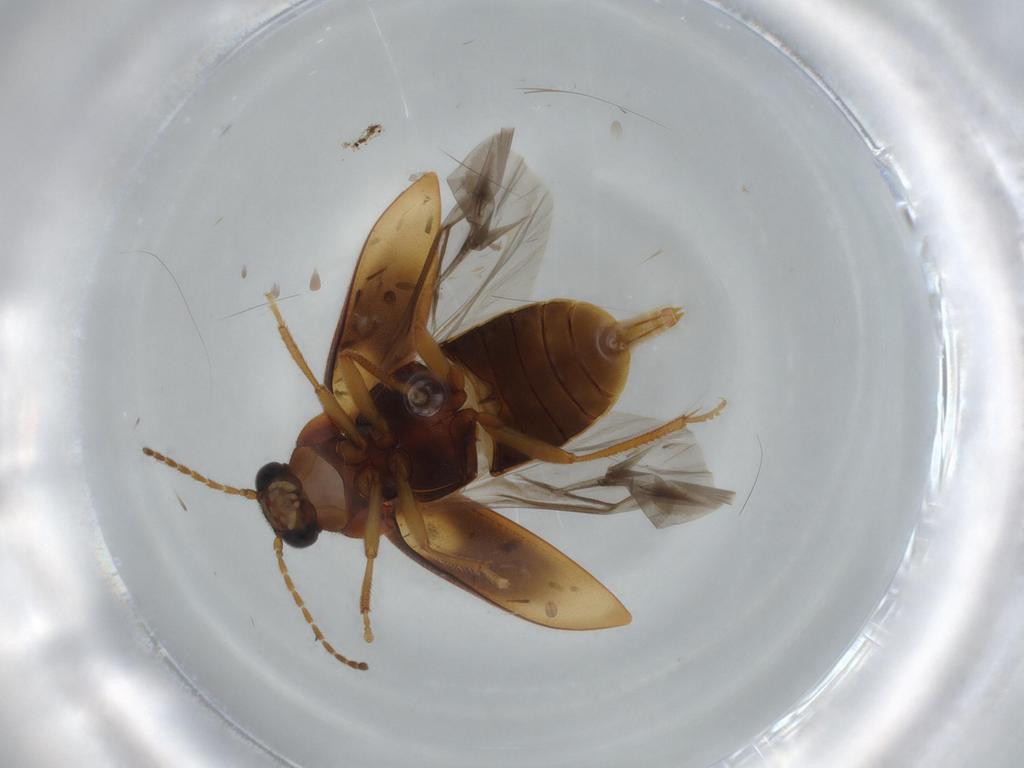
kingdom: Animalia
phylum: Arthropoda
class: Insecta
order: Coleoptera
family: Ptilodactylidae
